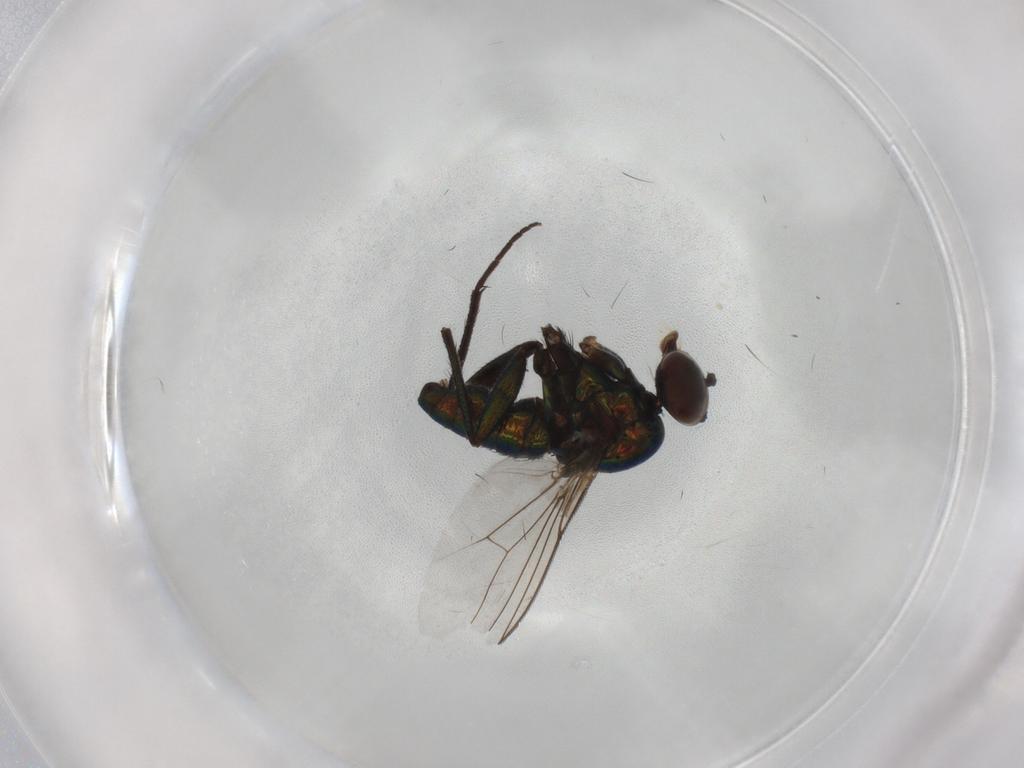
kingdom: Animalia
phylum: Arthropoda
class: Insecta
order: Diptera
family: Dolichopodidae
